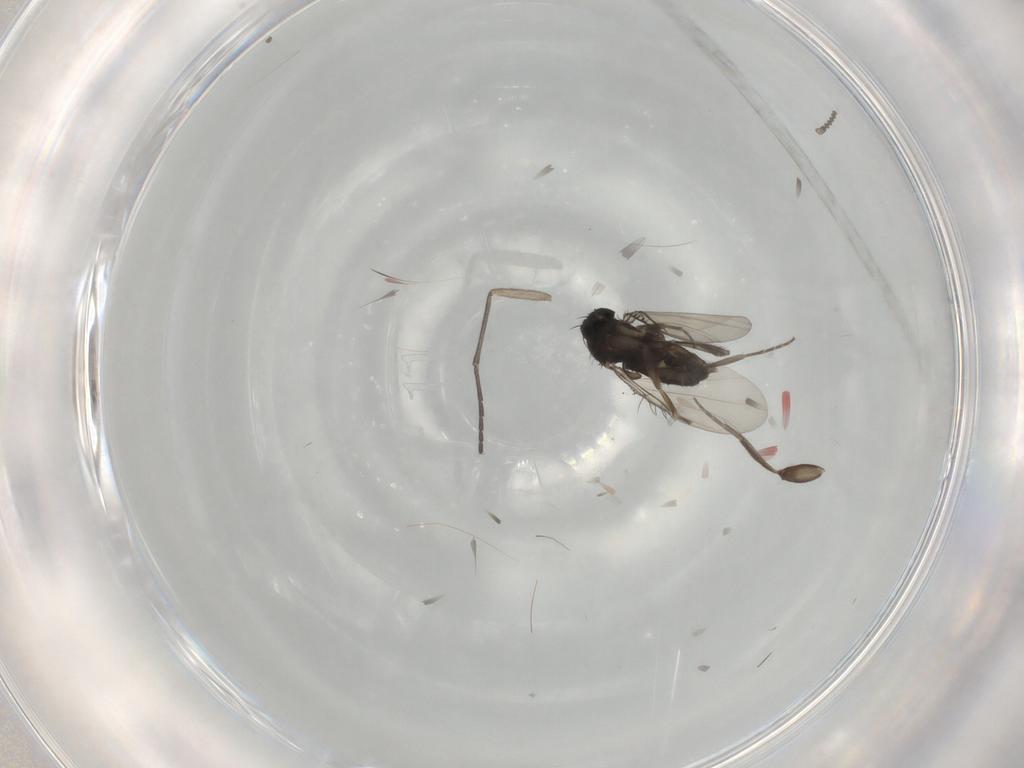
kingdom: Animalia
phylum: Arthropoda
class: Insecta
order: Diptera
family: Phoridae
